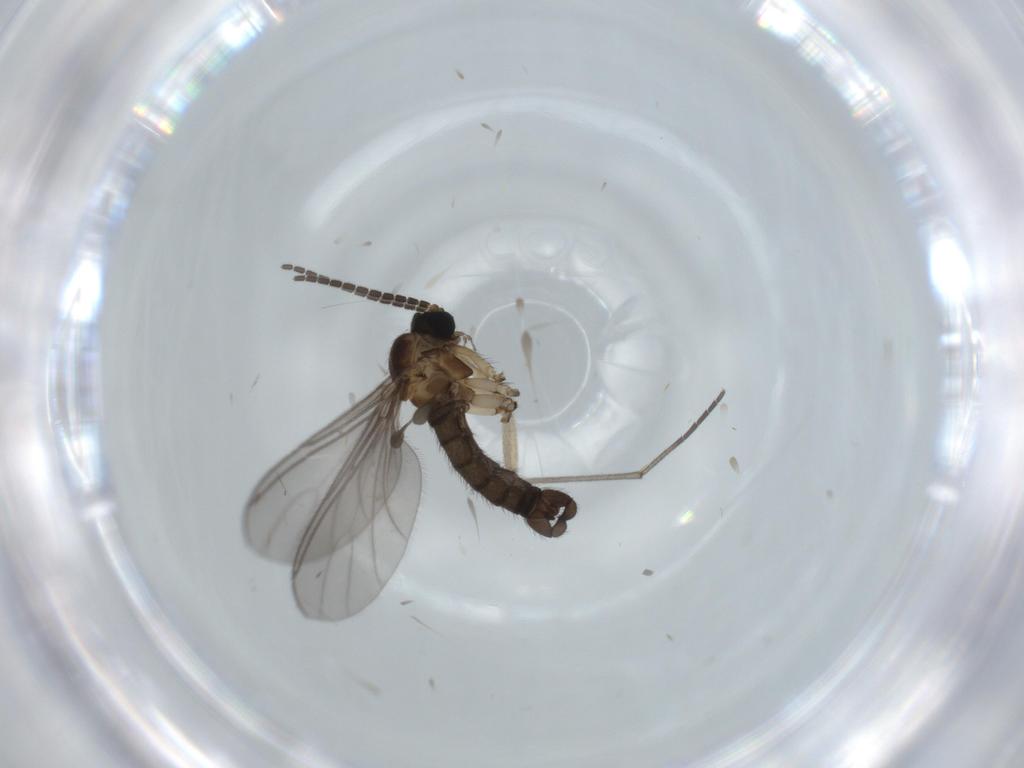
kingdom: Animalia
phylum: Arthropoda
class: Insecta
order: Diptera
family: Sciaridae
